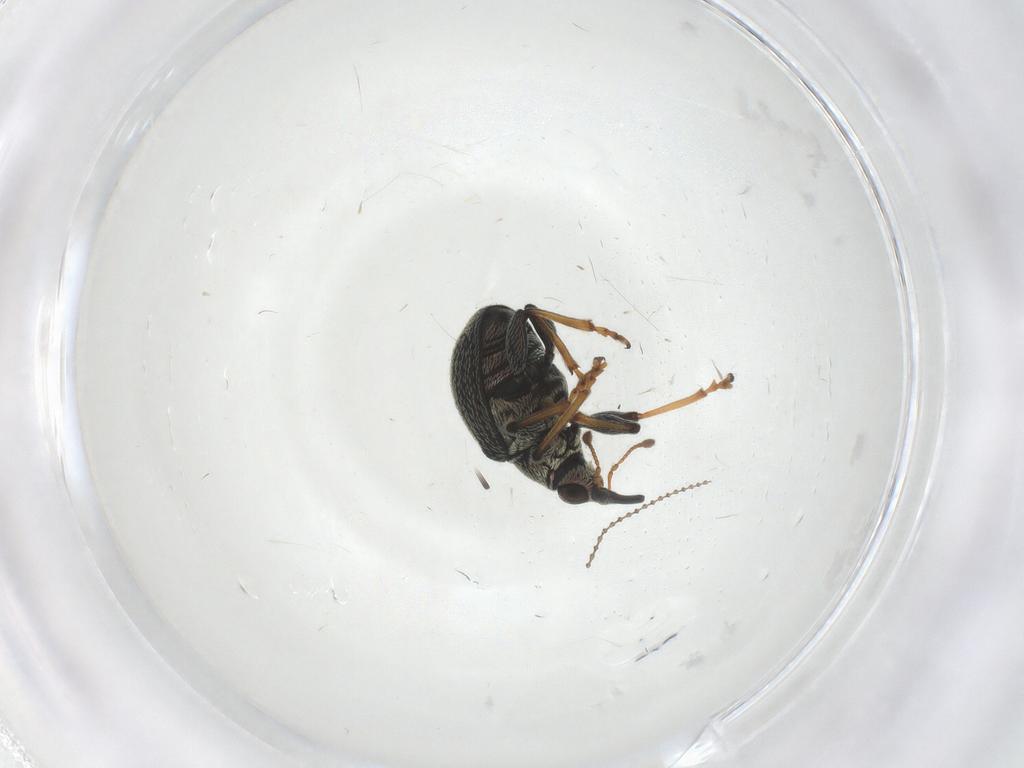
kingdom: Animalia
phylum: Arthropoda
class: Insecta
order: Coleoptera
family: Brentidae
